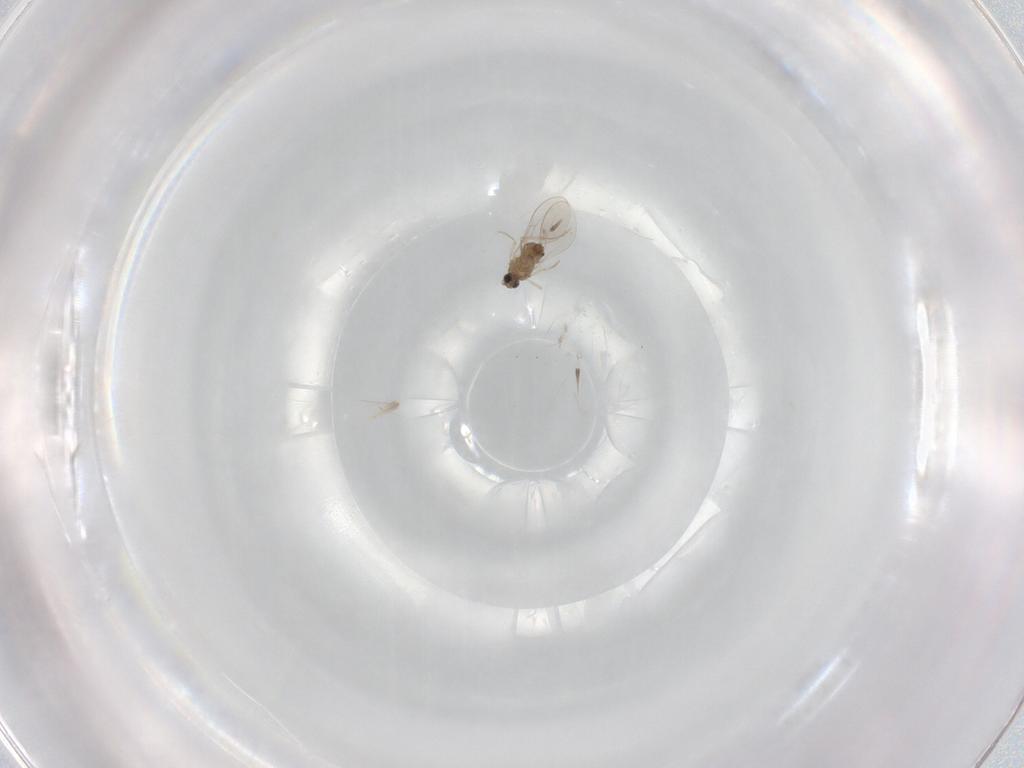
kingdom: Animalia
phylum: Arthropoda
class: Insecta
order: Diptera
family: Cecidomyiidae
